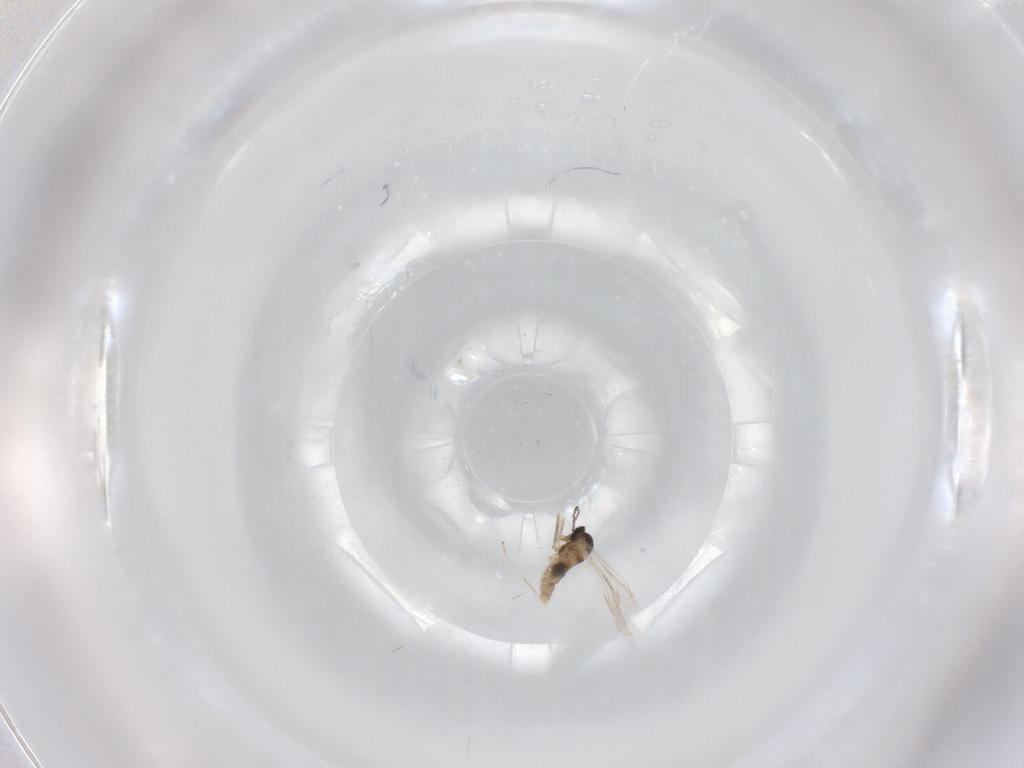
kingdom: Animalia
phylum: Arthropoda
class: Insecta
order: Diptera
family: Cecidomyiidae
